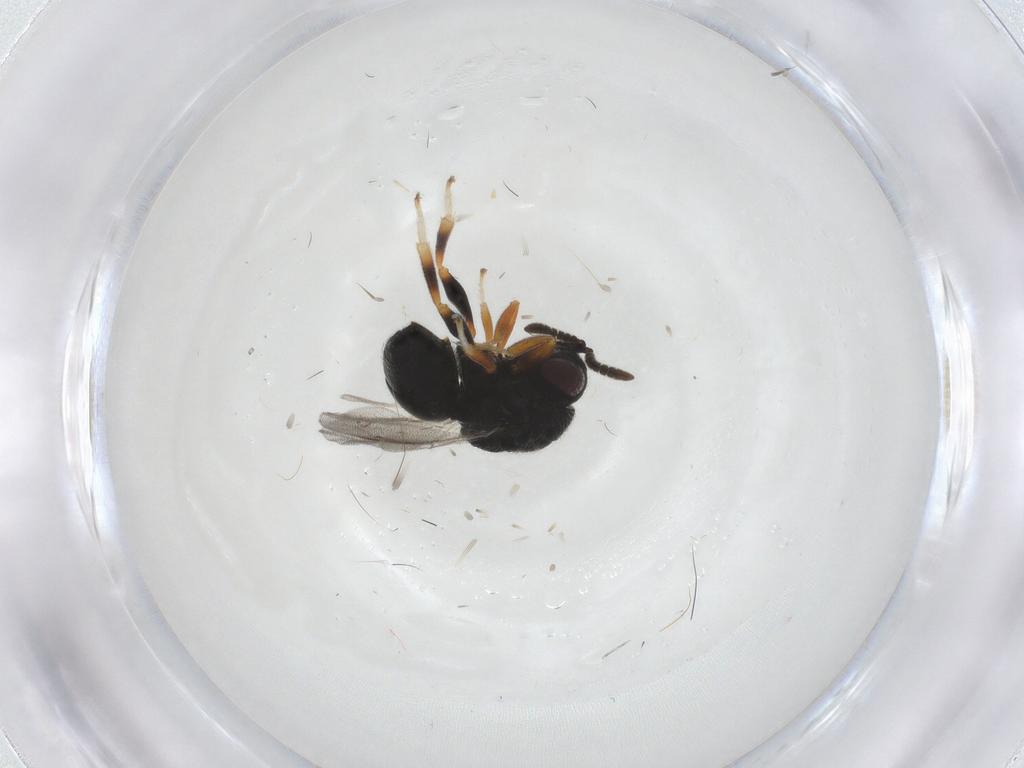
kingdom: Animalia
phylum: Arthropoda
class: Insecta
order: Hymenoptera
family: Eurytomidae
